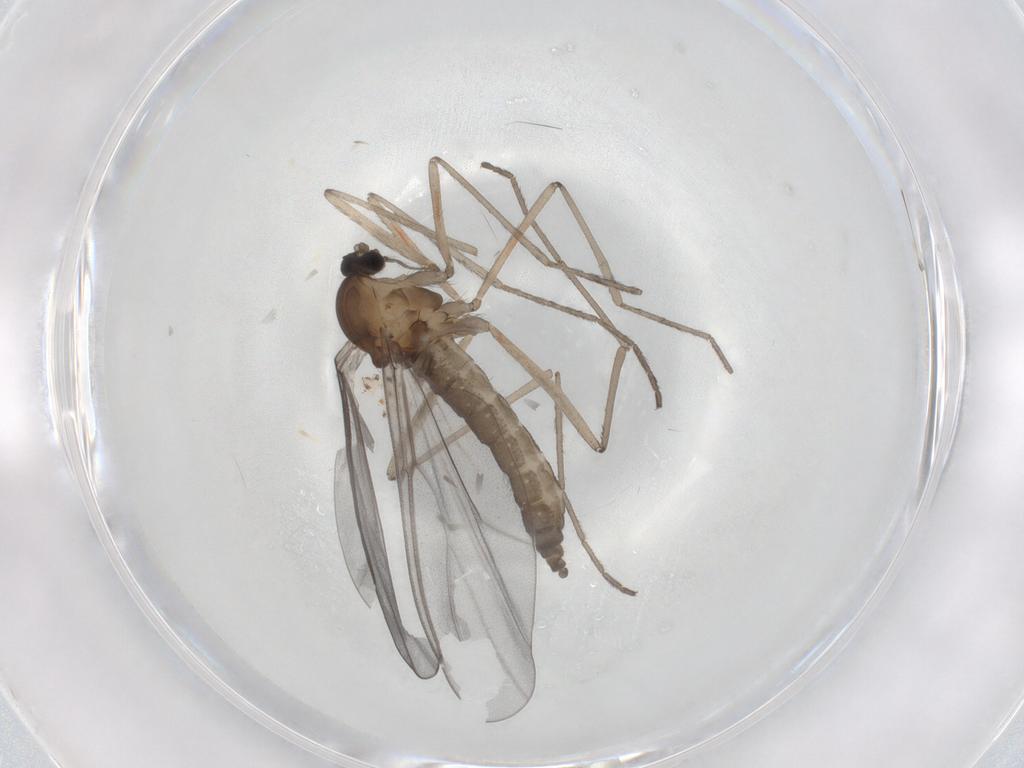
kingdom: Animalia
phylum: Arthropoda
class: Insecta
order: Diptera
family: Cecidomyiidae
